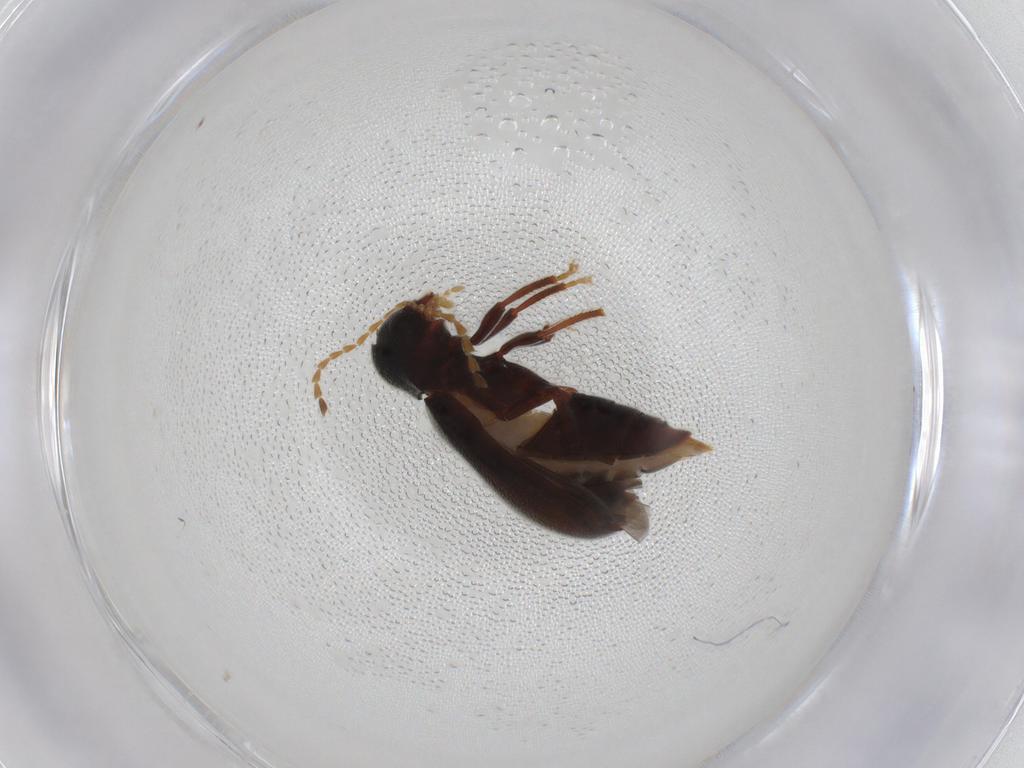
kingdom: Animalia
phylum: Arthropoda
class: Insecta
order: Coleoptera
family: Ptilodactylidae
